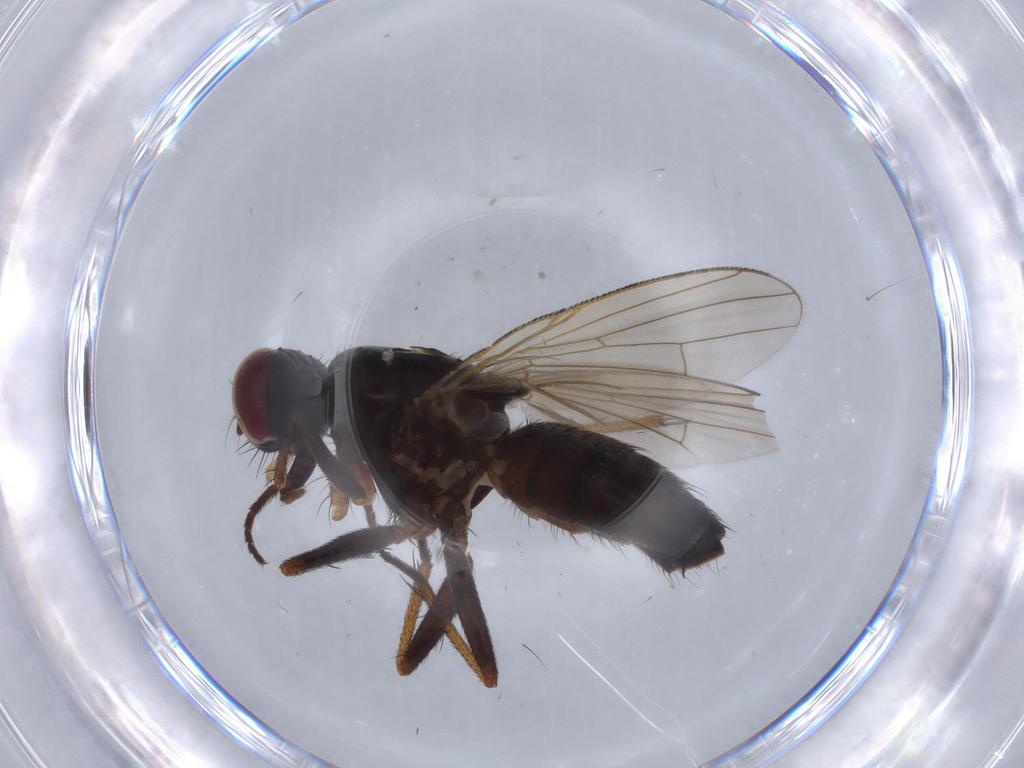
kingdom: Animalia
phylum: Arthropoda
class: Insecta
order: Diptera
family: Muscidae
